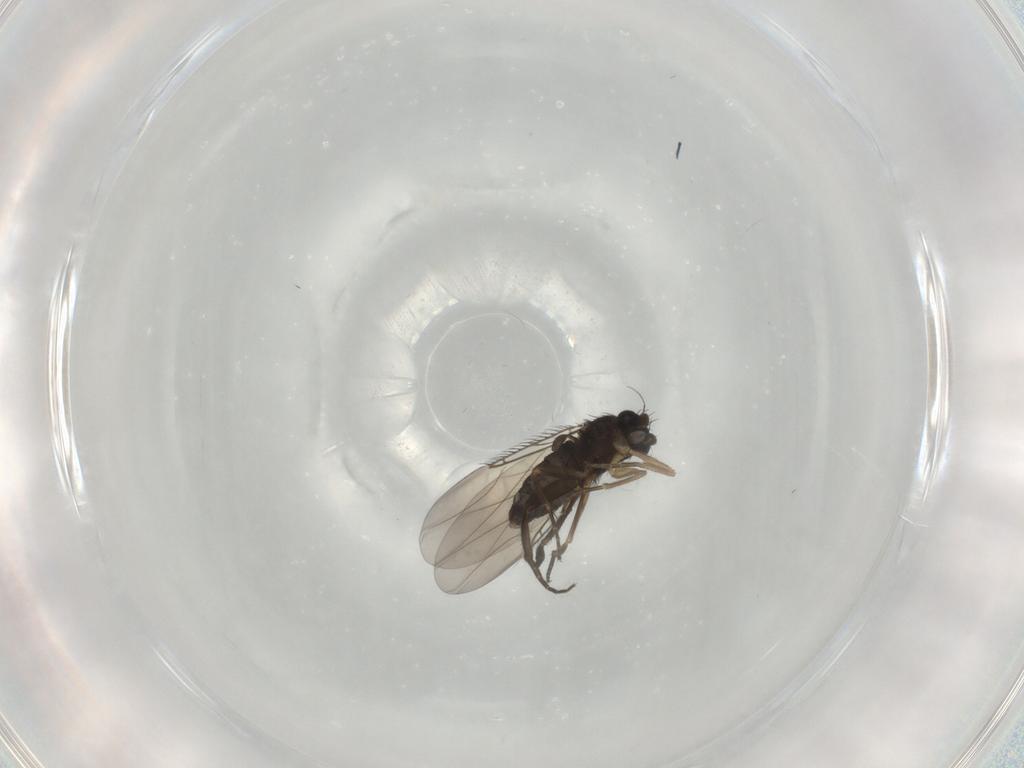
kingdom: Animalia
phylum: Arthropoda
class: Insecta
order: Diptera
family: Phoridae
